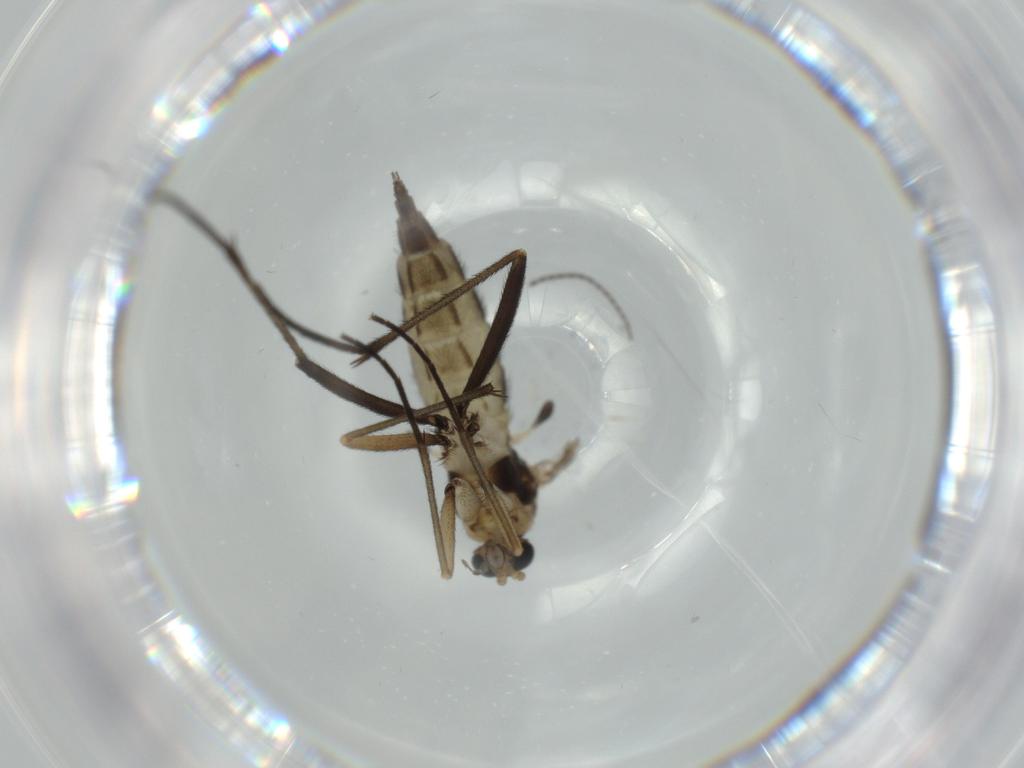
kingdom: Animalia
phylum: Arthropoda
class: Insecta
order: Diptera
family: Sciaridae
